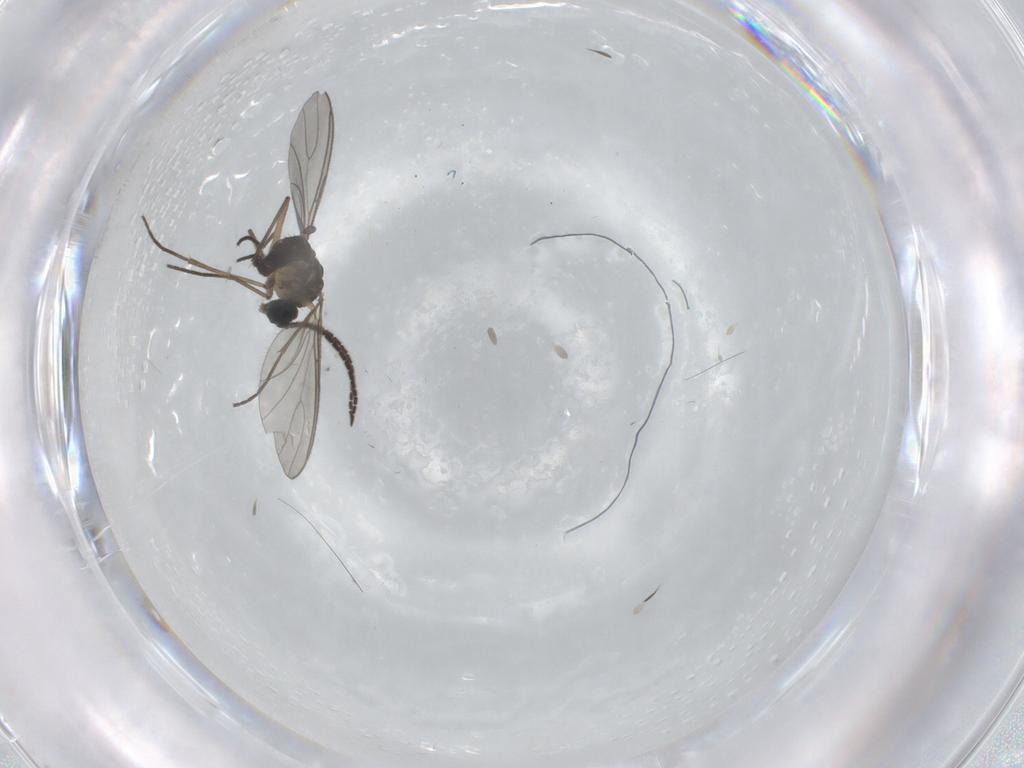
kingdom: Animalia
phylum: Arthropoda
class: Insecta
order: Diptera
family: Sciaridae
